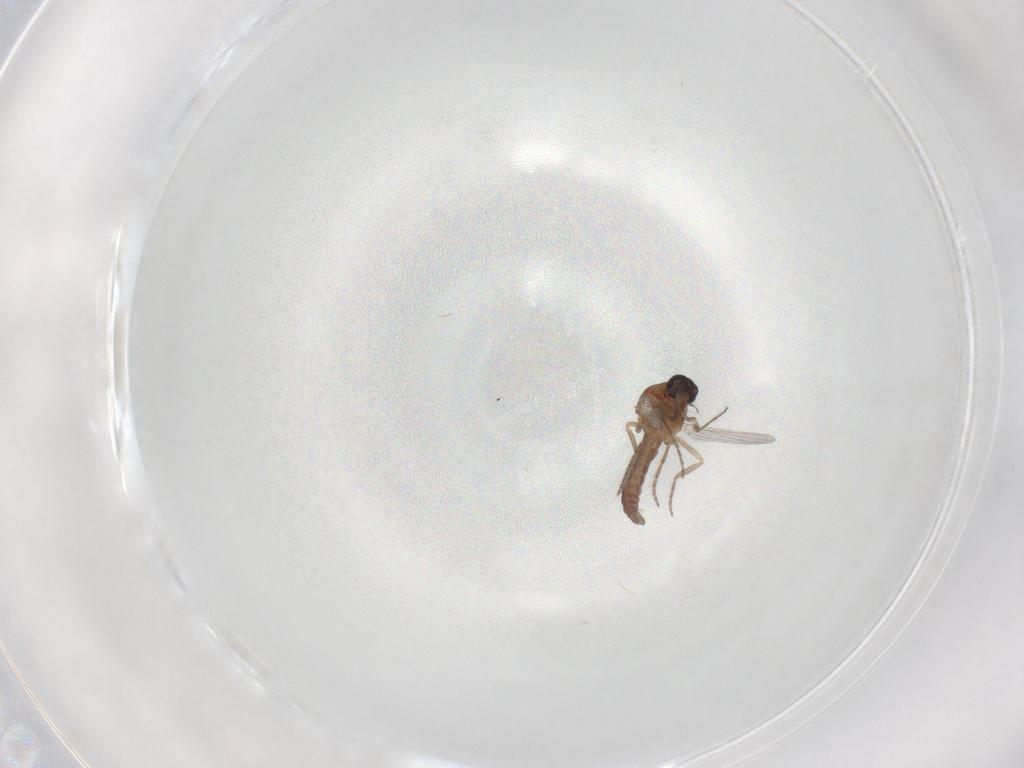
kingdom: Animalia
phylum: Arthropoda
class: Insecta
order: Diptera
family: Ceratopogonidae
